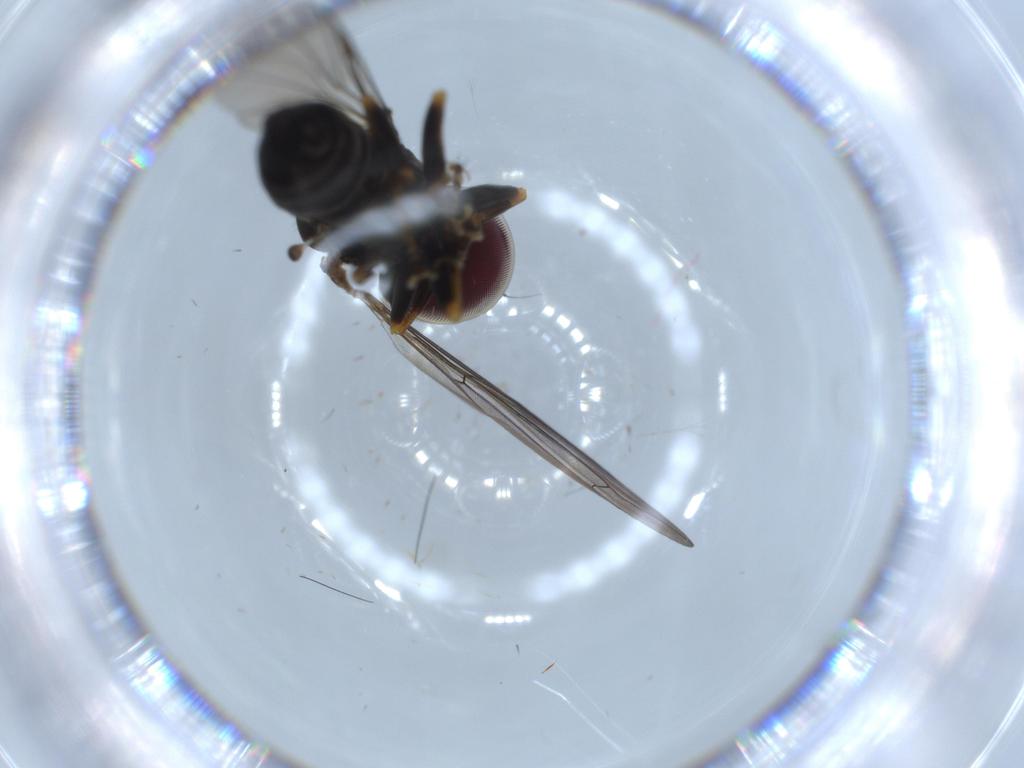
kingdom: Animalia
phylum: Arthropoda
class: Insecta
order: Diptera
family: Pipunculidae
